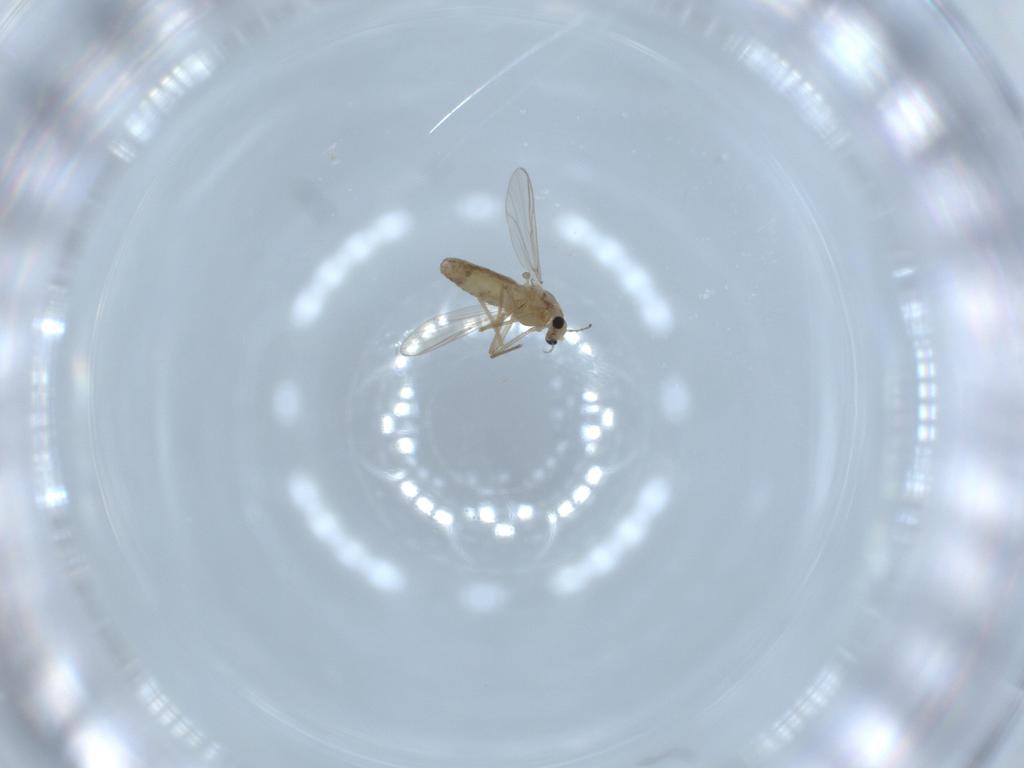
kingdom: Animalia
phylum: Arthropoda
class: Insecta
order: Diptera
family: Chironomidae
